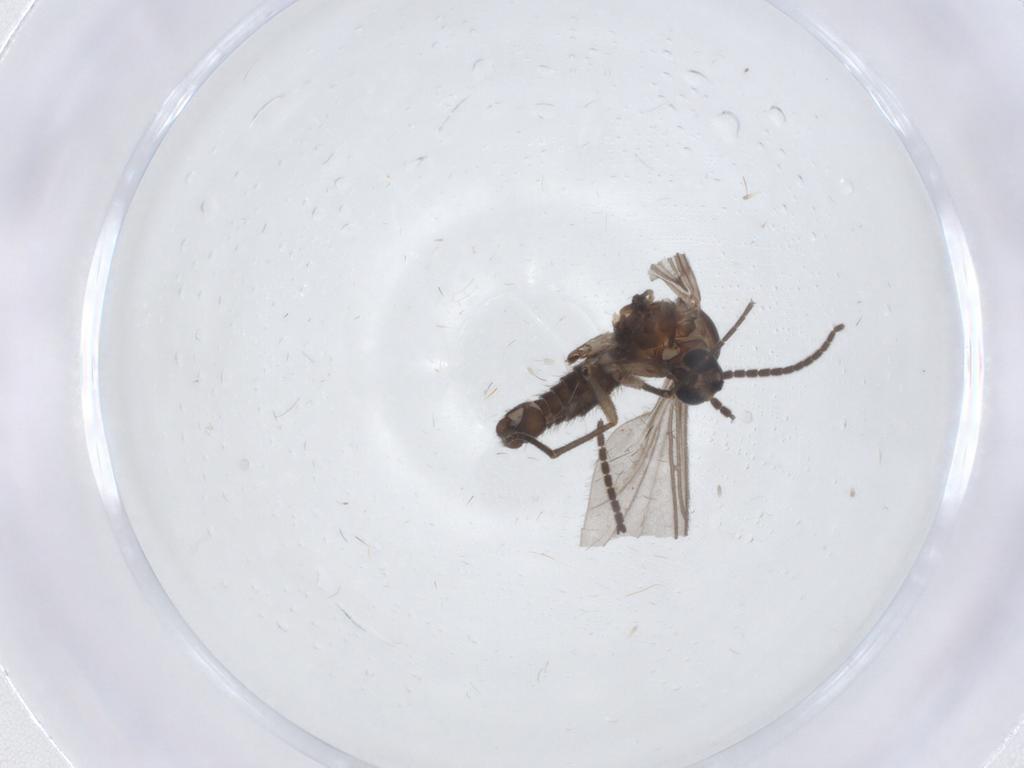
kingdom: Animalia
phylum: Arthropoda
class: Insecta
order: Diptera
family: Sciaridae
